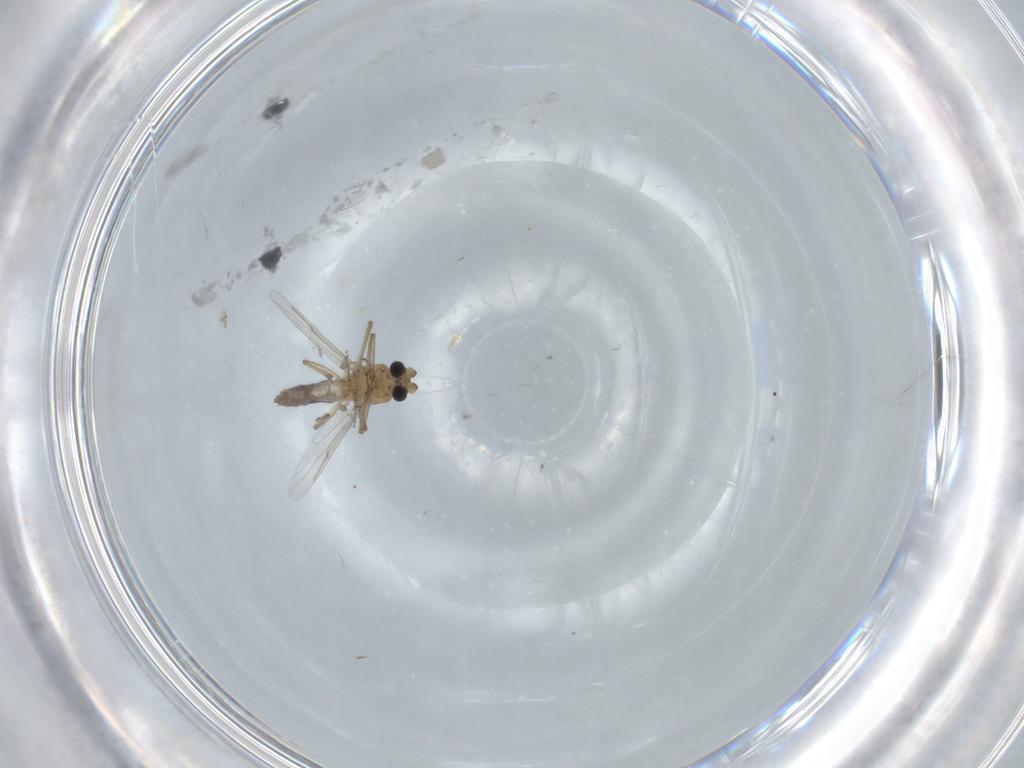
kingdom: Animalia
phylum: Arthropoda
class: Insecta
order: Diptera
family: Ceratopogonidae
